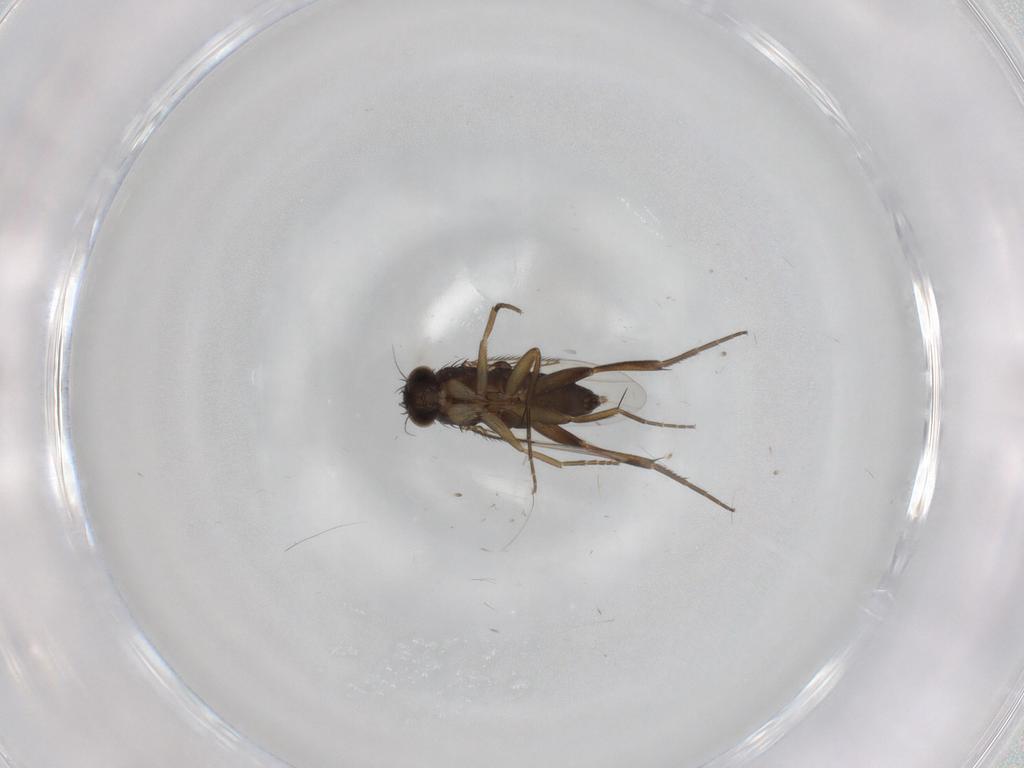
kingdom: Animalia
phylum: Arthropoda
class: Insecta
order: Diptera
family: Phoridae
